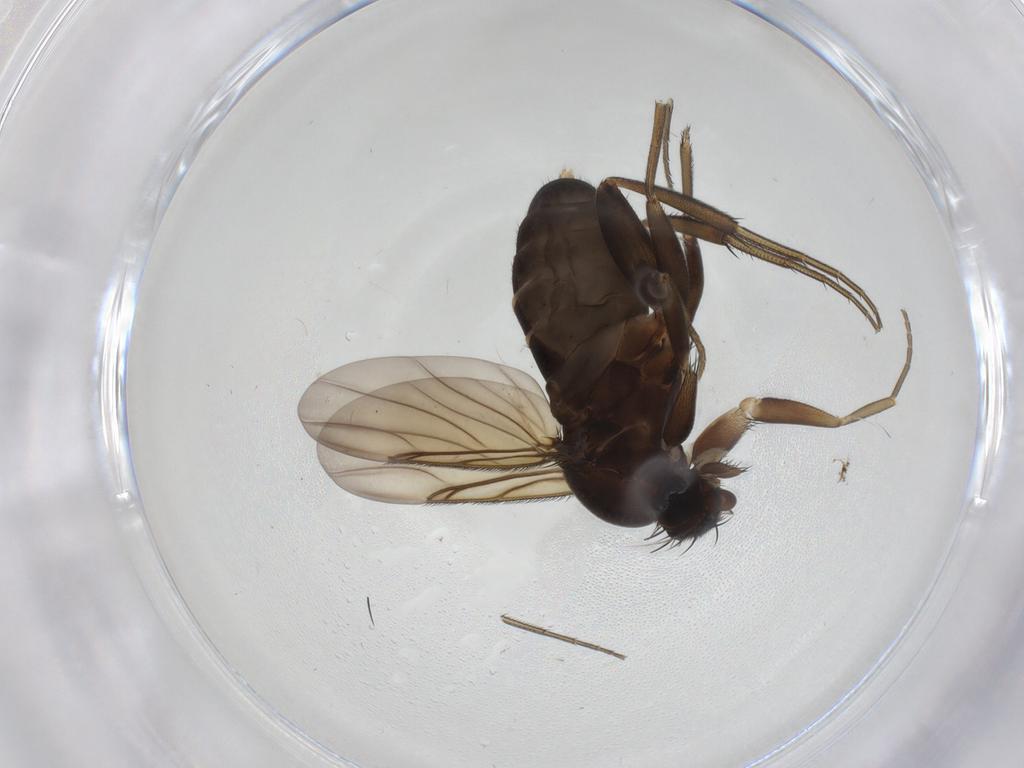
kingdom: Animalia
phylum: Arthropoda
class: Insecta
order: Diptera
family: Phoridae
